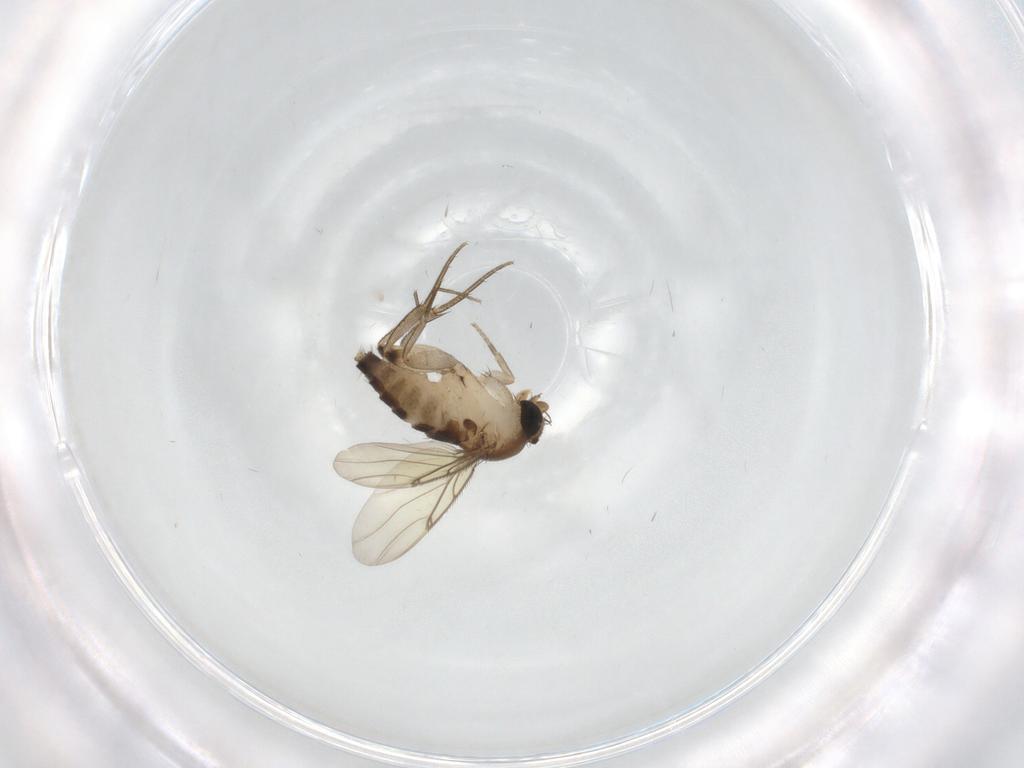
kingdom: Animalia
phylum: Arthropoda
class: Insecta
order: Diptera
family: Phoridae
